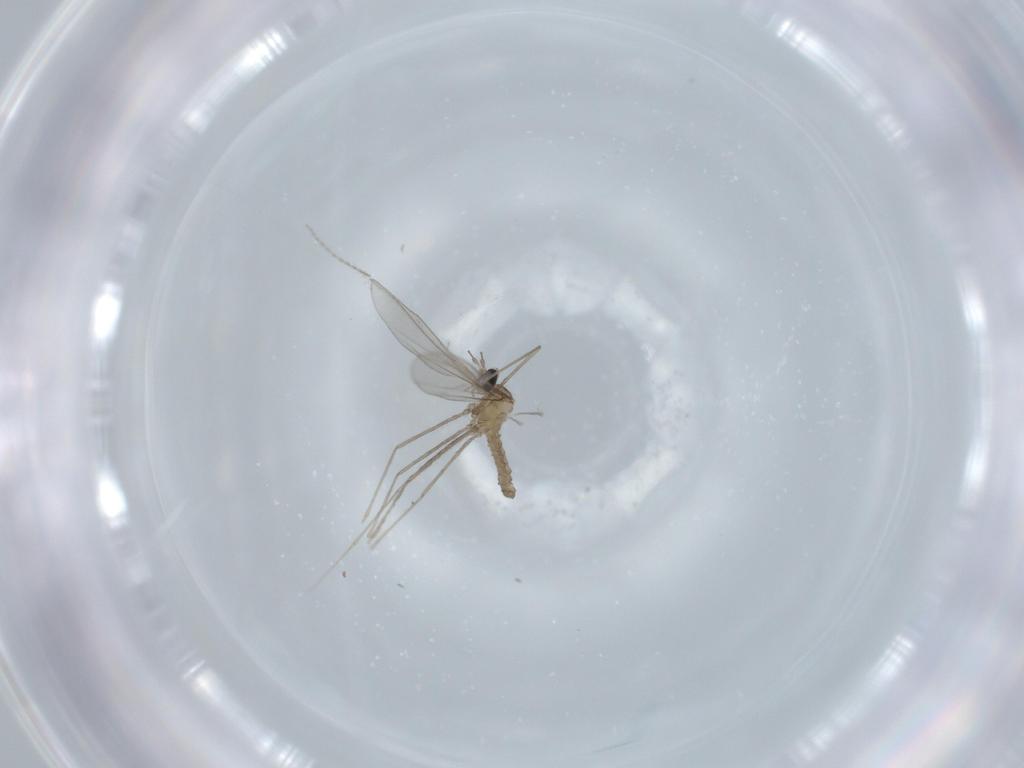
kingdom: Animalia
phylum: Arthropoda
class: Insecta
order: Diptera
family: Cecidomyiidae
